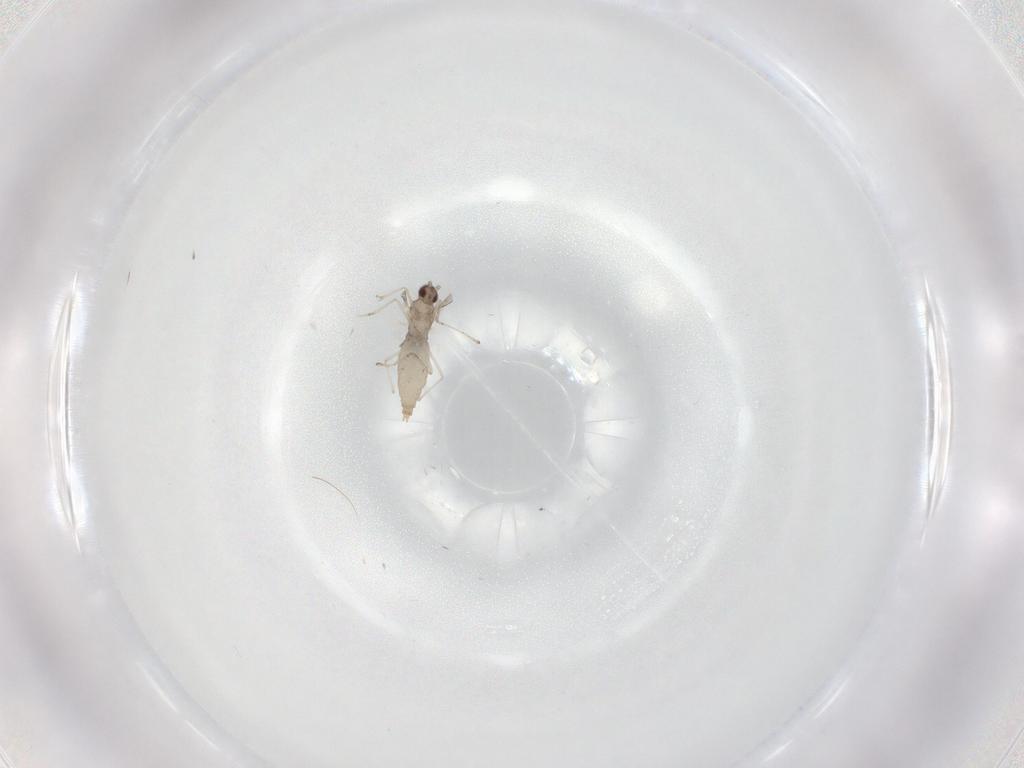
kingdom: Animalia
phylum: Arthropoda
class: Insecta
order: Diptera
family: Cecidomyiidae
